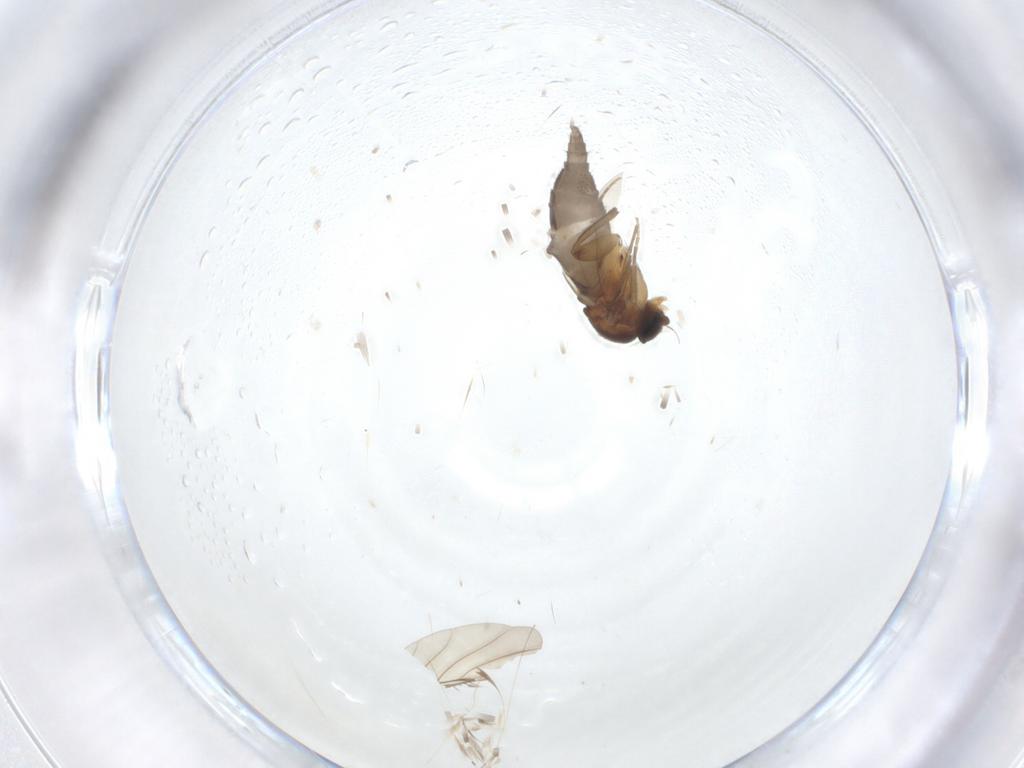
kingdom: Animalia
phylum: Arthropoda
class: Insecta
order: Diptera
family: Phoridae
